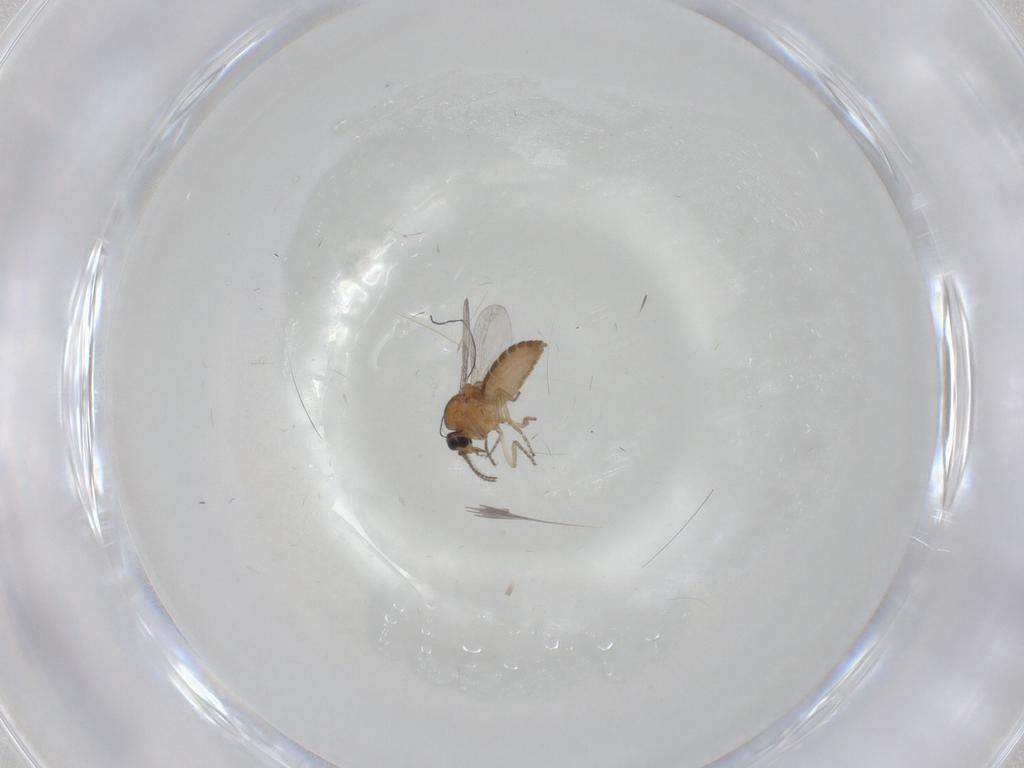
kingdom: Animalia
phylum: Arthropoda
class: Insecta
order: Diptera
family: Ceratopogonidae
